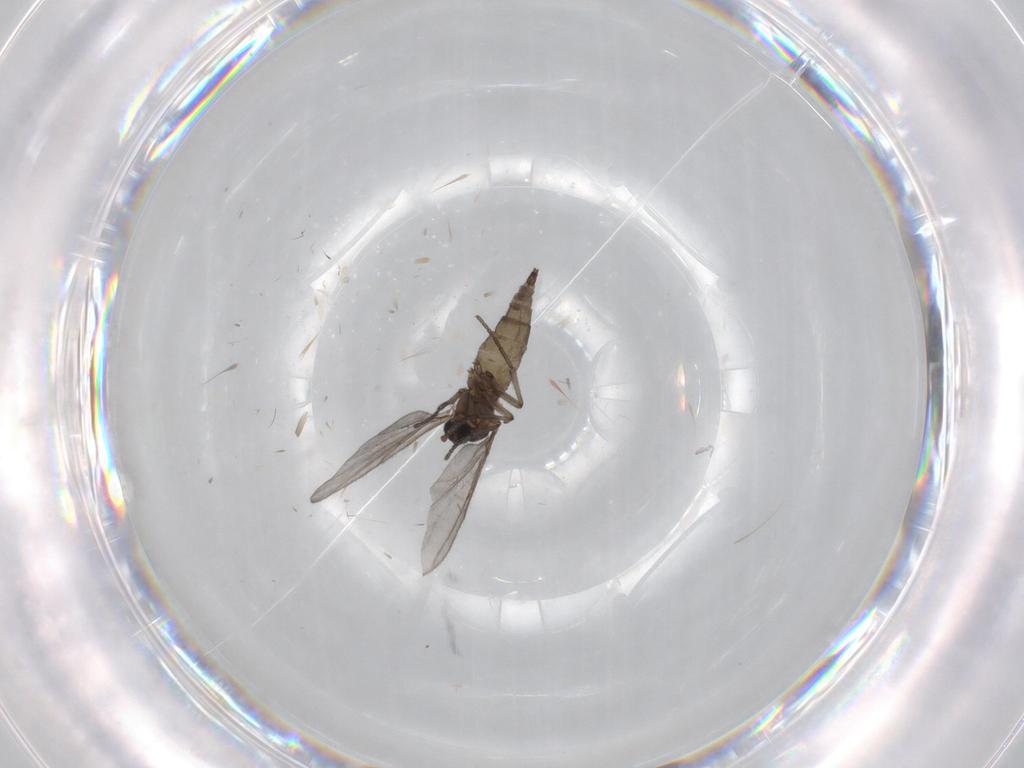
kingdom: Animalia
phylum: Arthropoda
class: Insecta
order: Diptera
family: Sciaridae
